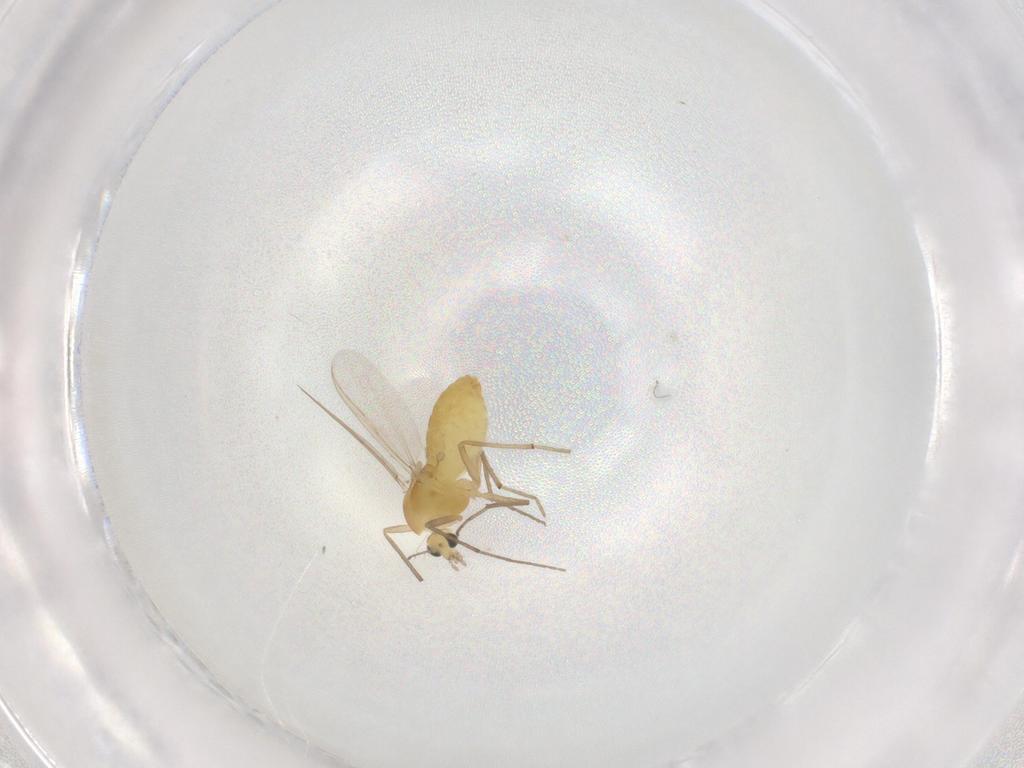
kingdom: Animalia
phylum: Arthropoda
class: Insecta
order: Diptera
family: Chironomidae
